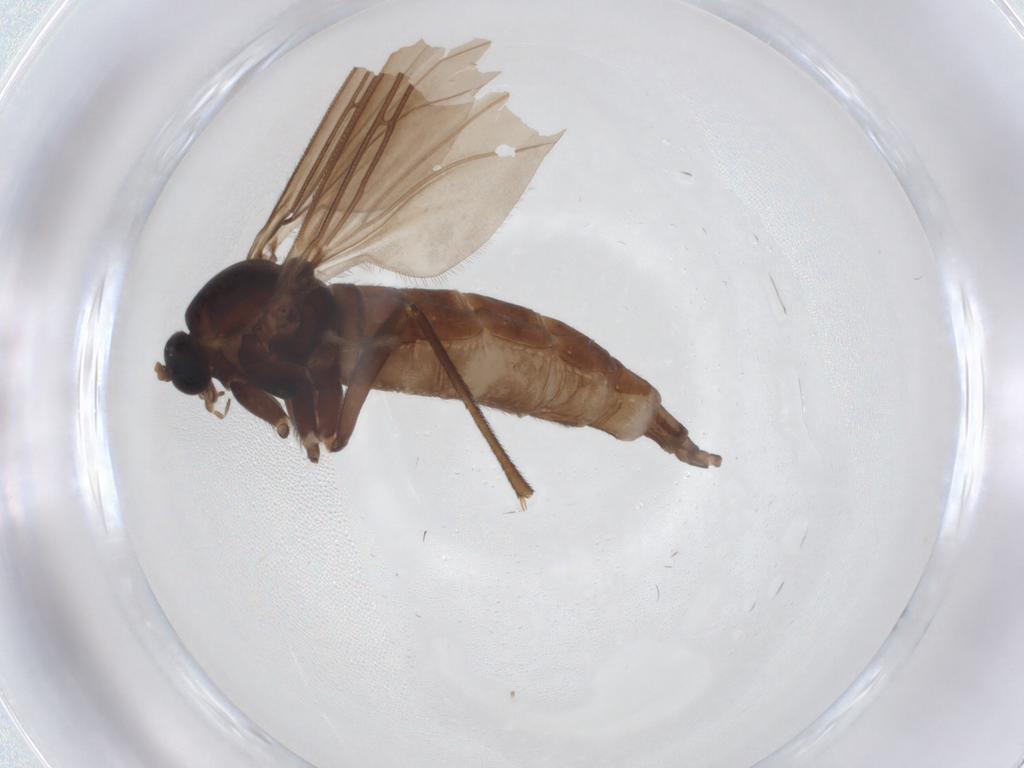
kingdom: Animalia
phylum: Arthropoda
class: Insecta
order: Diptera
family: Sciaridae
